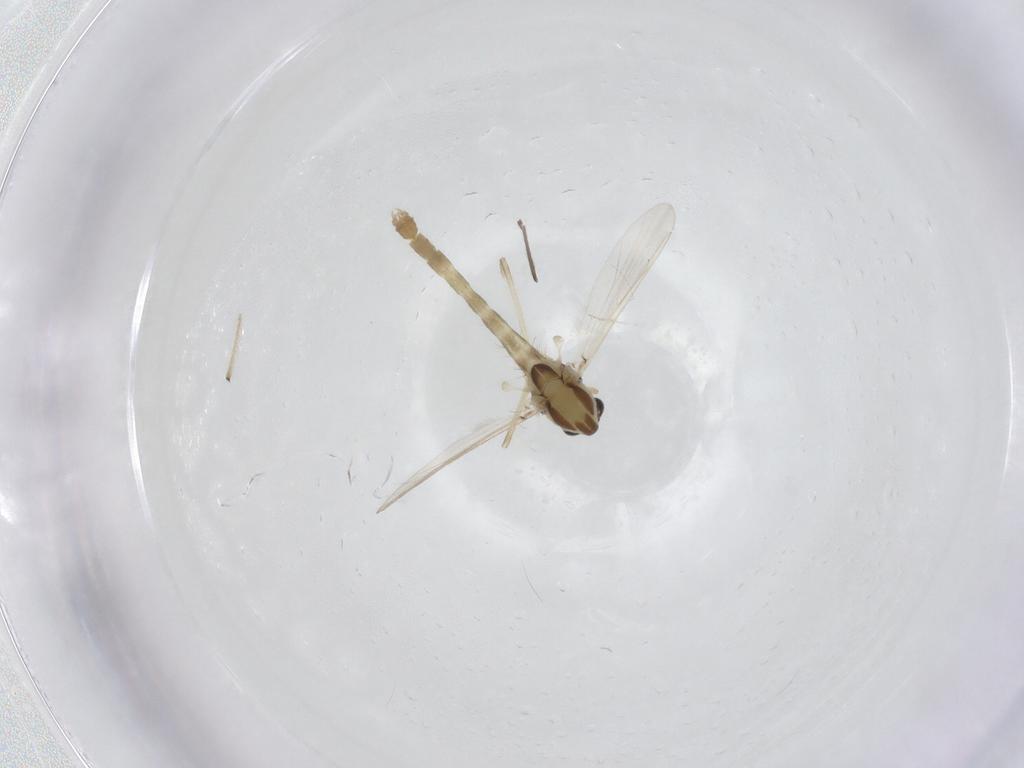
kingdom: Animalia
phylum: Arthropoda
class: Insecta
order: Diptera
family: Chironomidae
